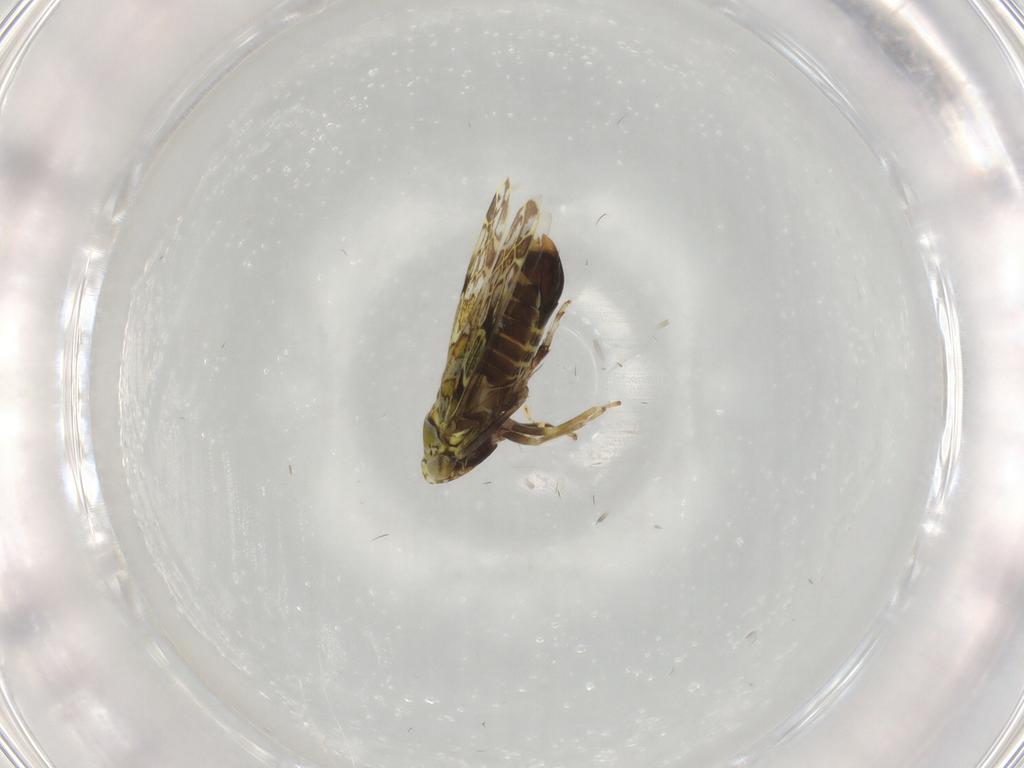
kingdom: Animalia
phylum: Arthropoda
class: Insecta
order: Hemiptera
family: Cicadellidae
